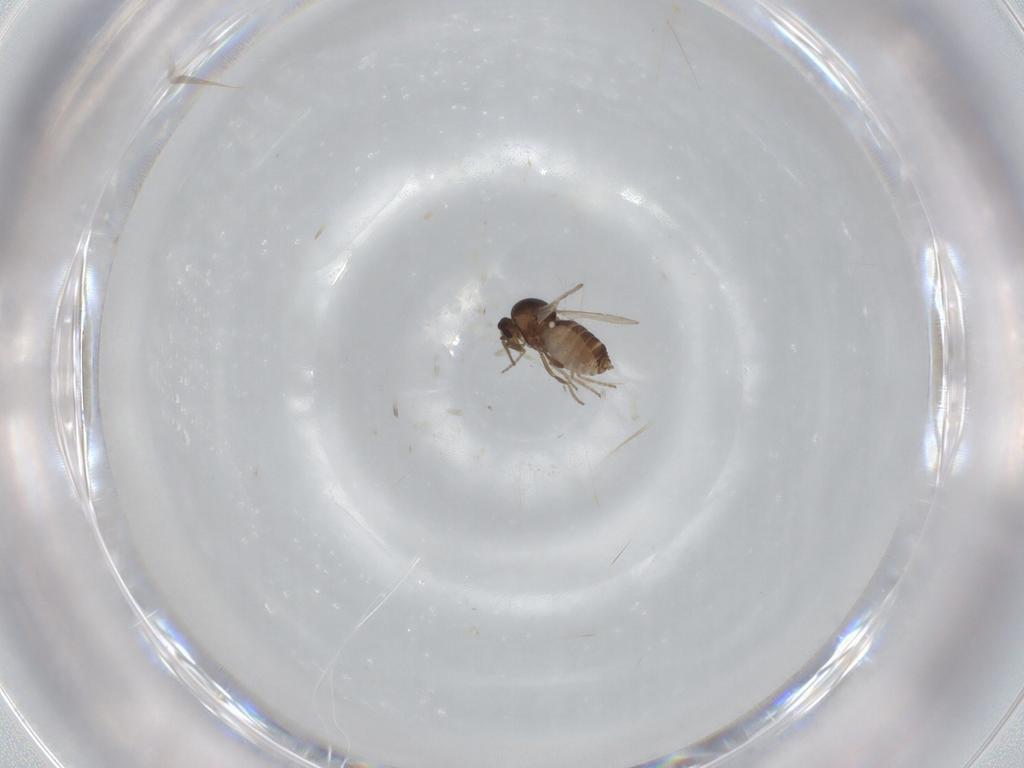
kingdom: Animalia
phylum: Arthropoda
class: Insecta
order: Diptera
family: Ceratopogonidae
